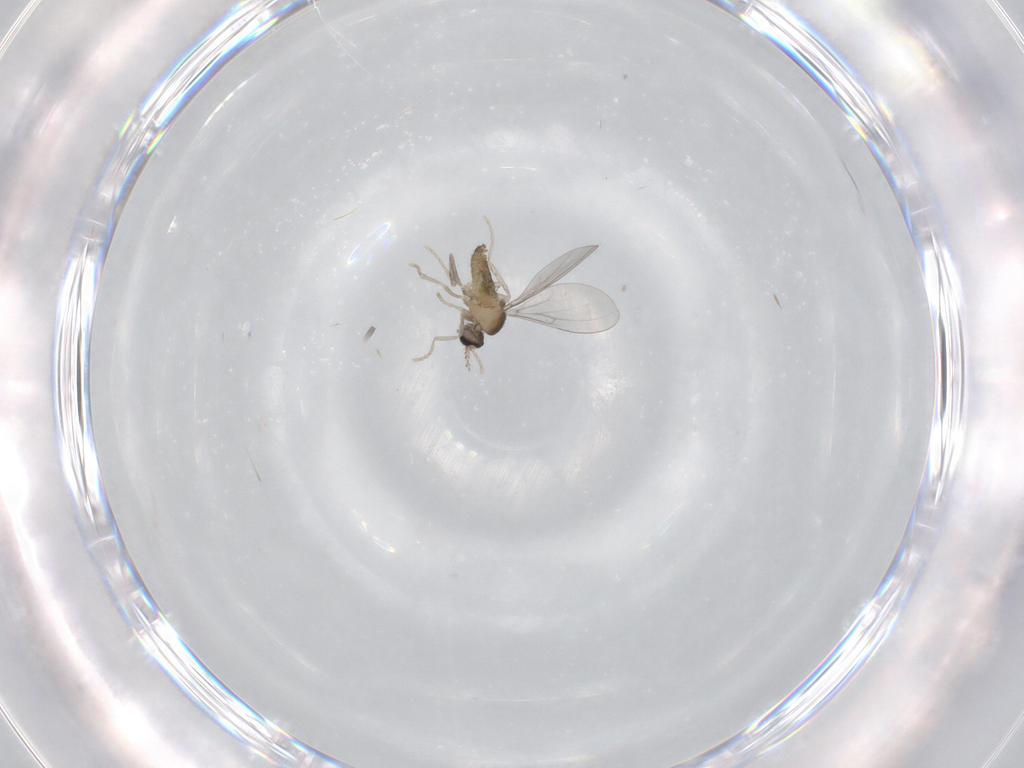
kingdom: Animalia
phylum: Arthropoda
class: Insecta
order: Diptera
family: Cecidomyiidae
